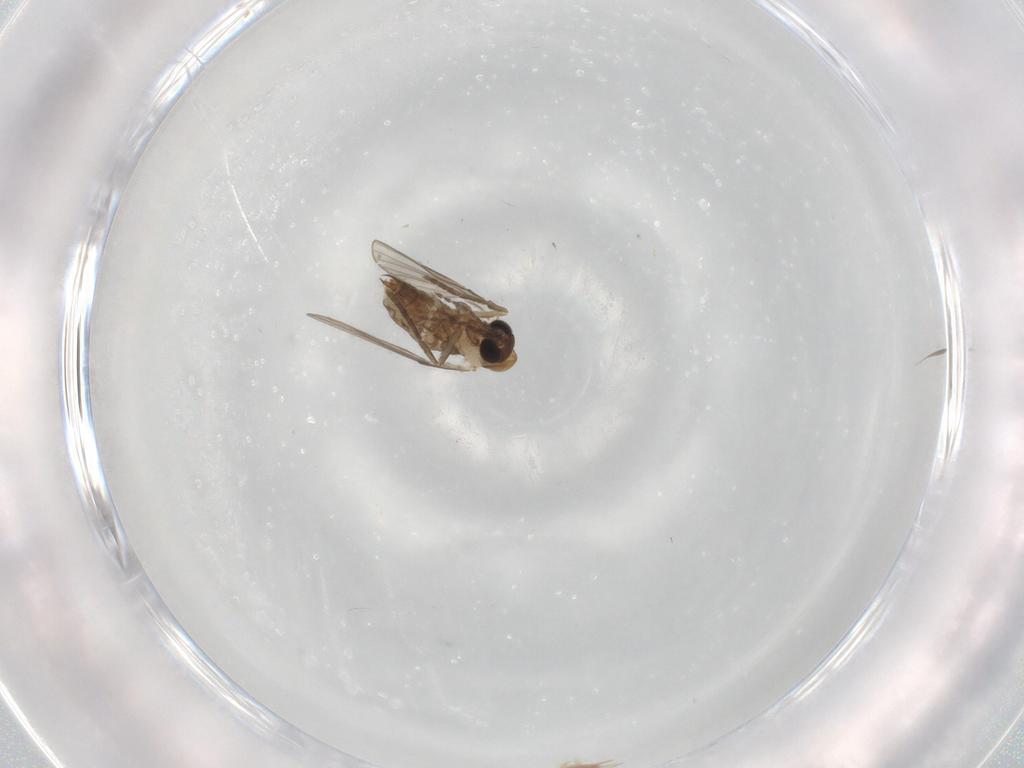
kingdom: Animalia
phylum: Arthropoda
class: Insecta
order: Diptera
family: Psychodidae
